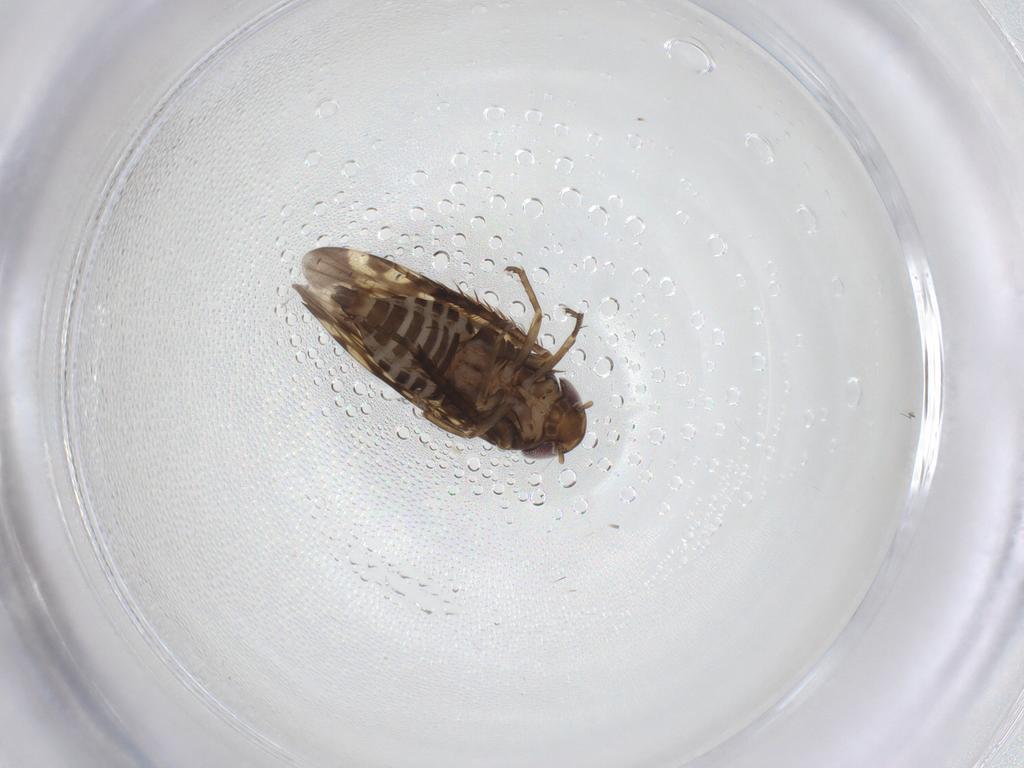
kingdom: Animalia
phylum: Arthropoda
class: Insecta
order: Hemiptera
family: Cicadellidae
